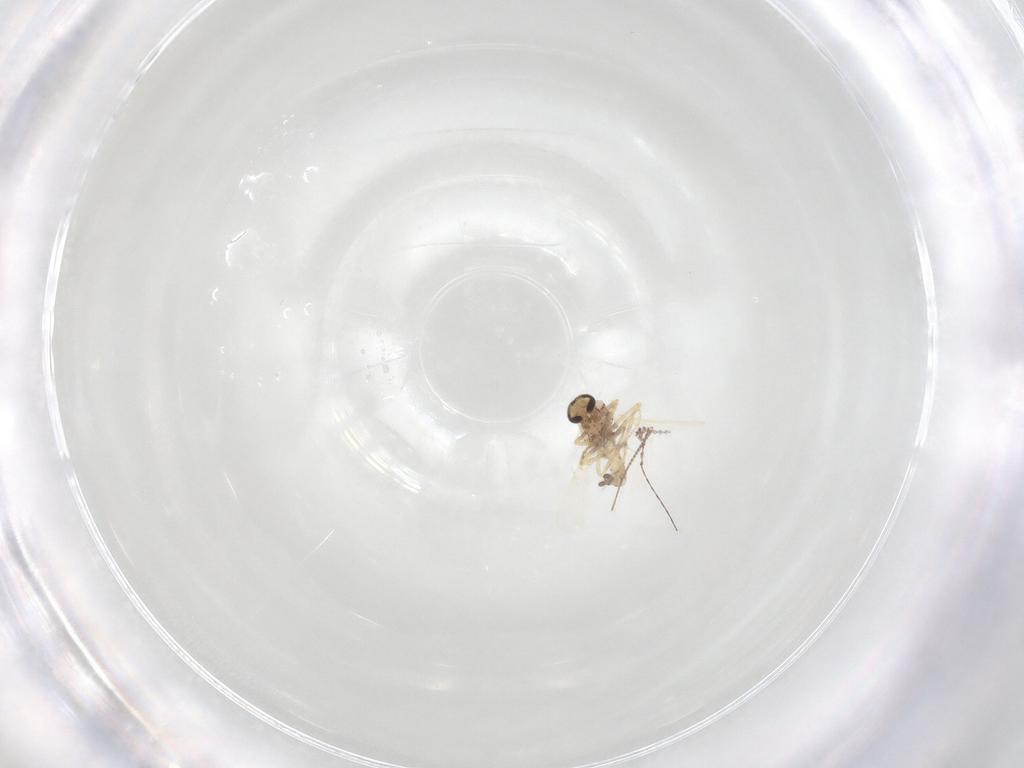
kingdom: Animalia
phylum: Arthropoda
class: Insecta
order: Diptera
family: Chironomidae
